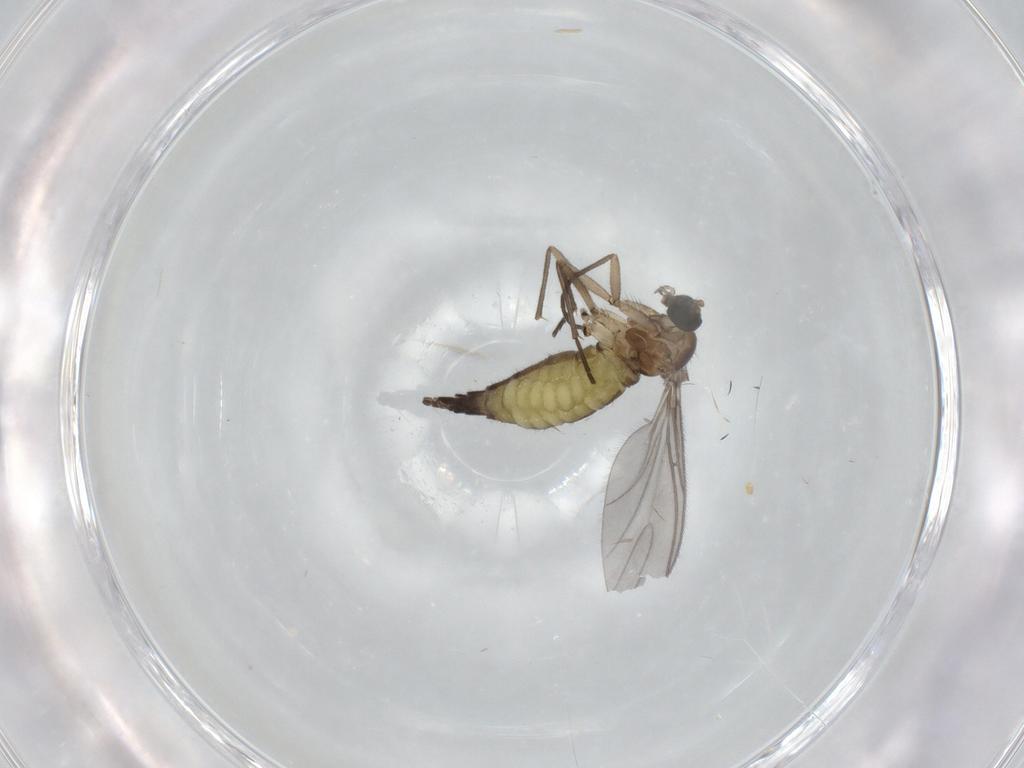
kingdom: Animalia
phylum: Arthropoda
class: Insecta
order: Diptera
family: Sciaridae
